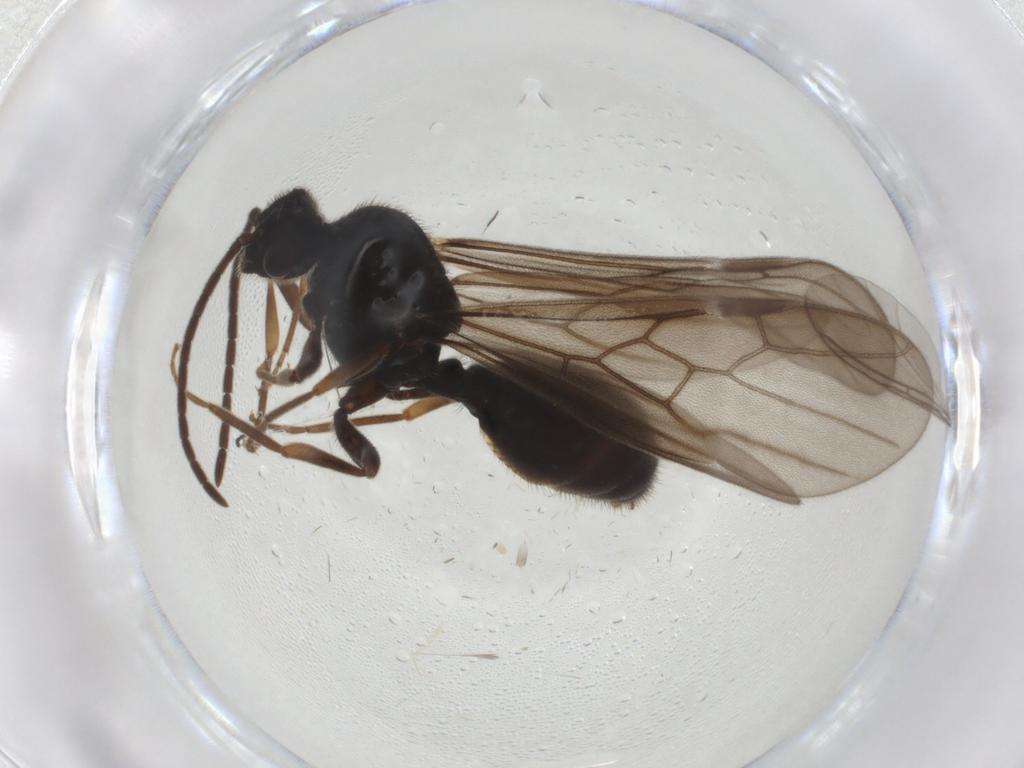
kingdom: Animalia
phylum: Arthropoda
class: Insecta
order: Hymenoptera
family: Formicidae
